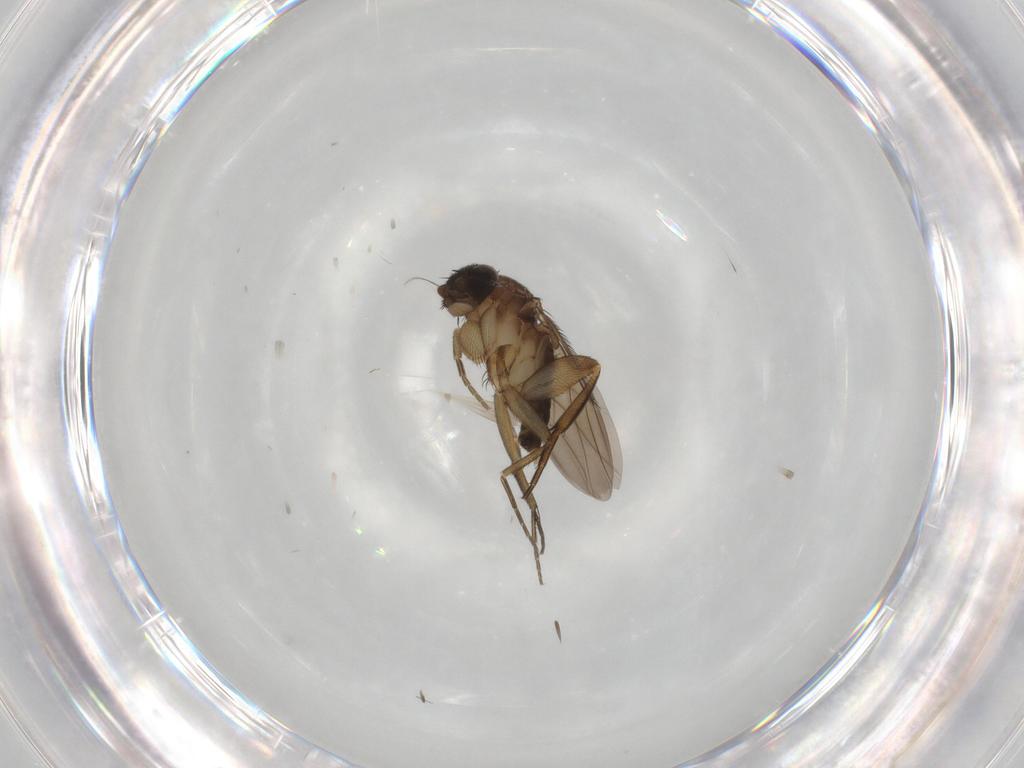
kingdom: Animalia
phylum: Arthropoda
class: Insecta
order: Diptera
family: Phoridae
